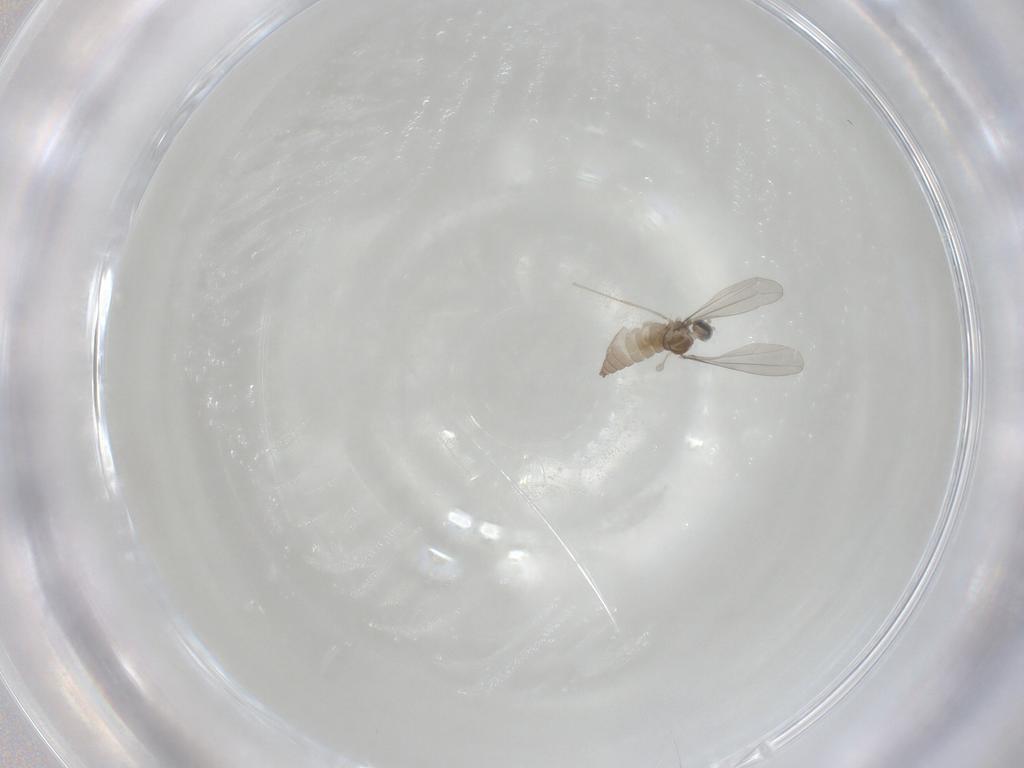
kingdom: Animalia
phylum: Arthropoda
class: Insecta
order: Diptera
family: Cecidomyiidae
